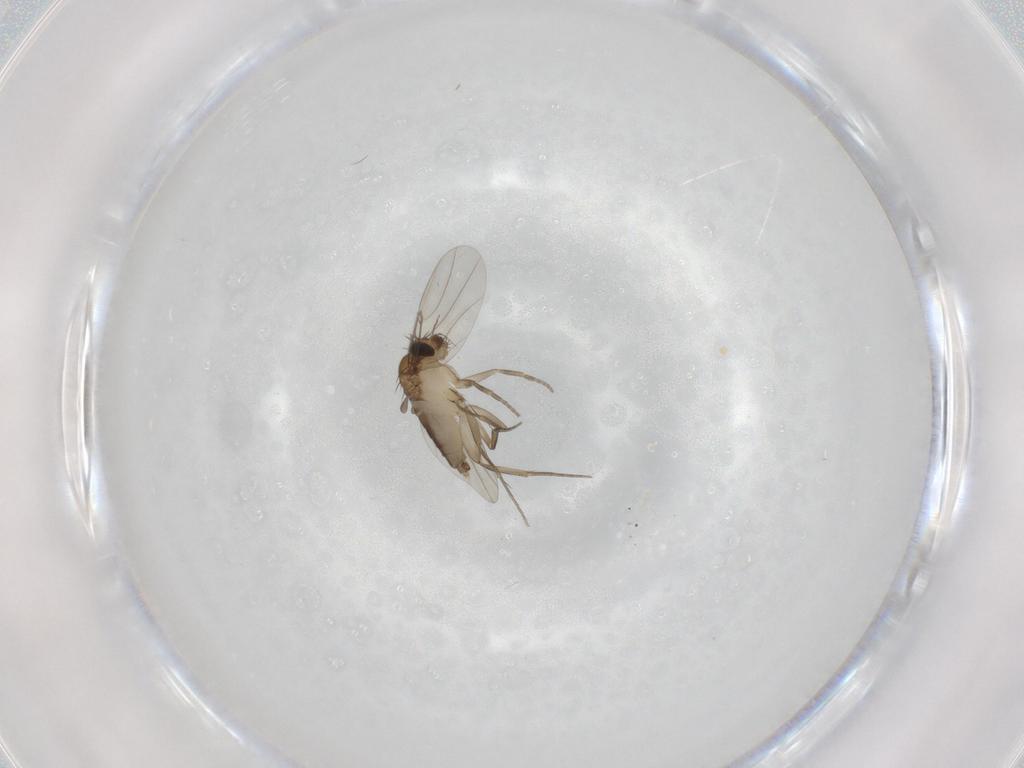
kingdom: Animalia
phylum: Arthropoda
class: Insecta
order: Diptera
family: Phoridae
